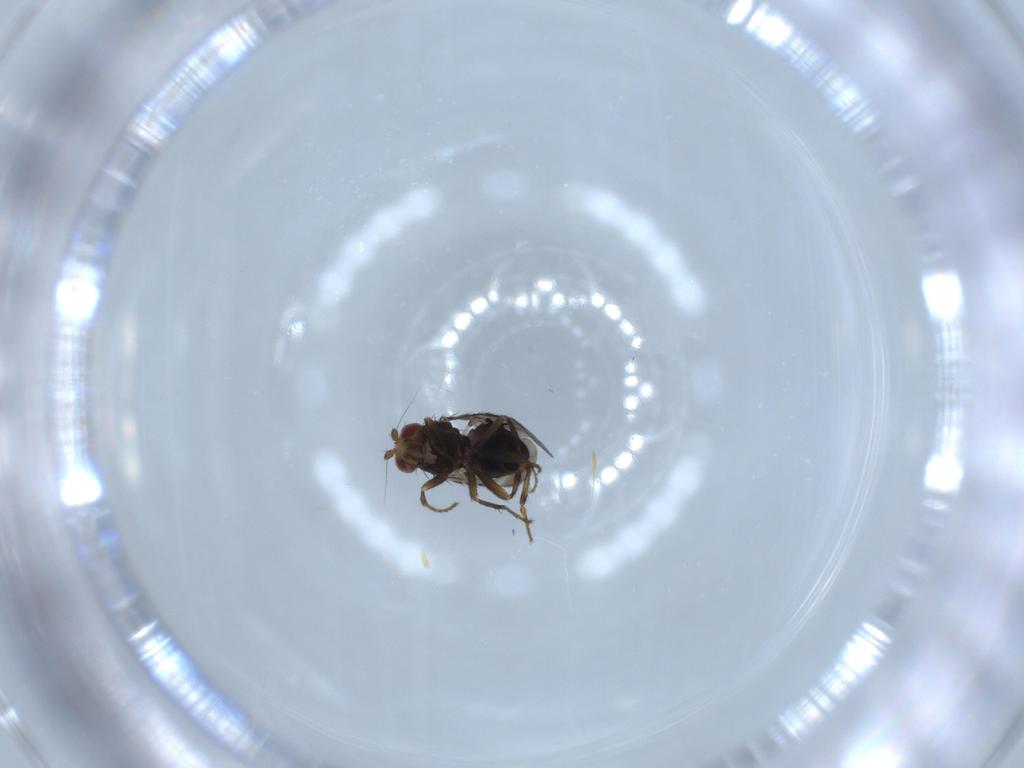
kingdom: Animalia
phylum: Arthropoda
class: Insecta
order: Diptera
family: Sphaeroceridae
